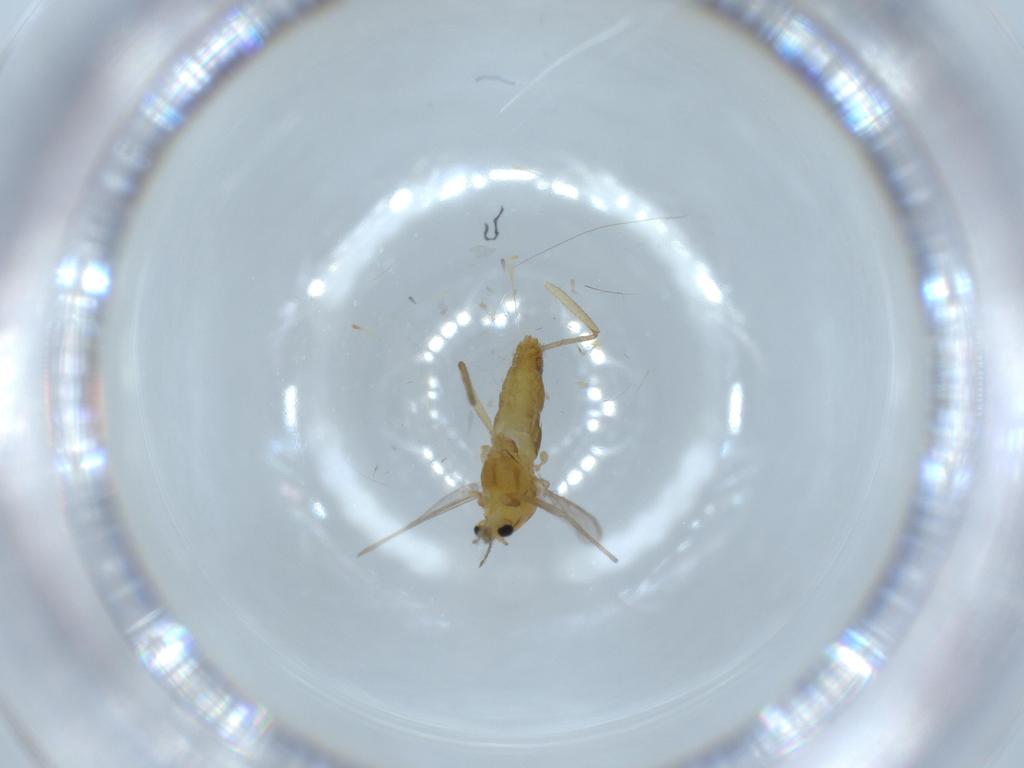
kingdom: Animalia
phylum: Arthropoda
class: Insecta
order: Diptera
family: Chironomidae
